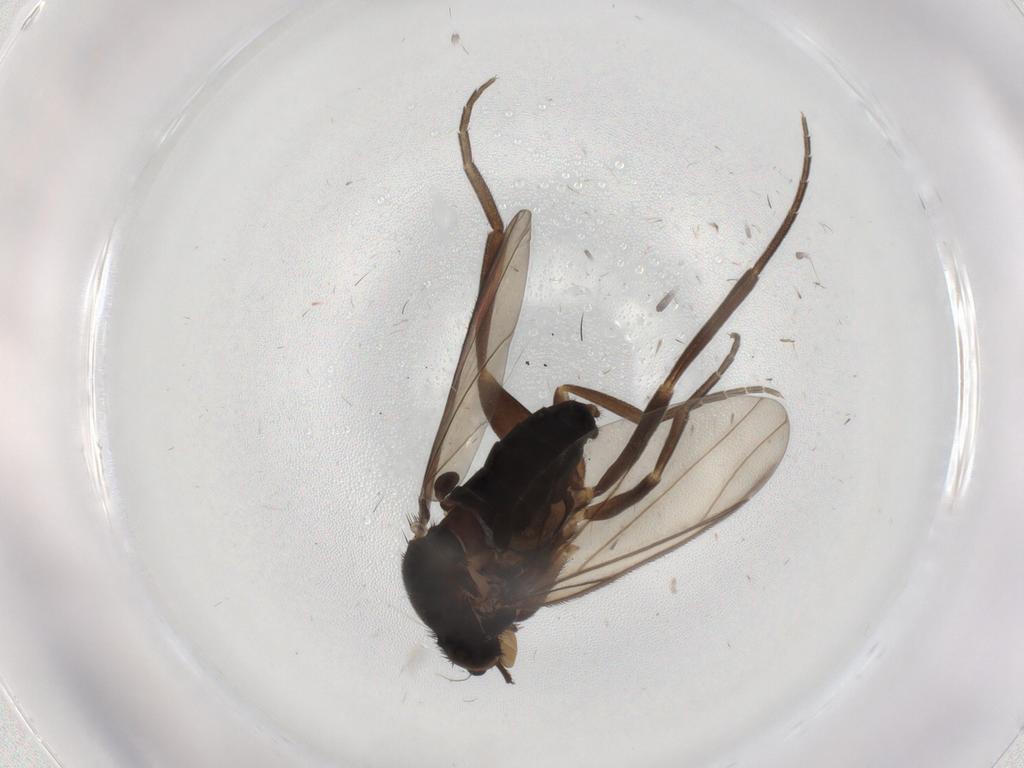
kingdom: Animalia
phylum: Arthropoda
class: Insecta
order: Diptera
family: Phoridae
